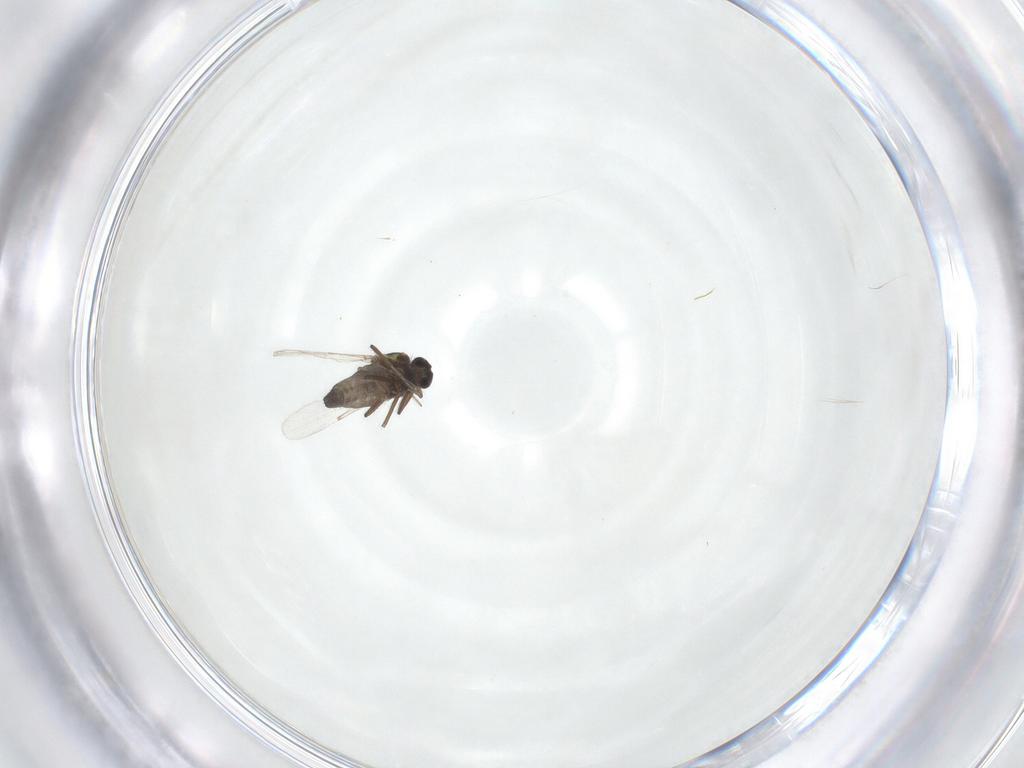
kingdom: Animalia
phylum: Arthropoda
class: Insecta
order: Diptera
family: Ceratopogonidae
